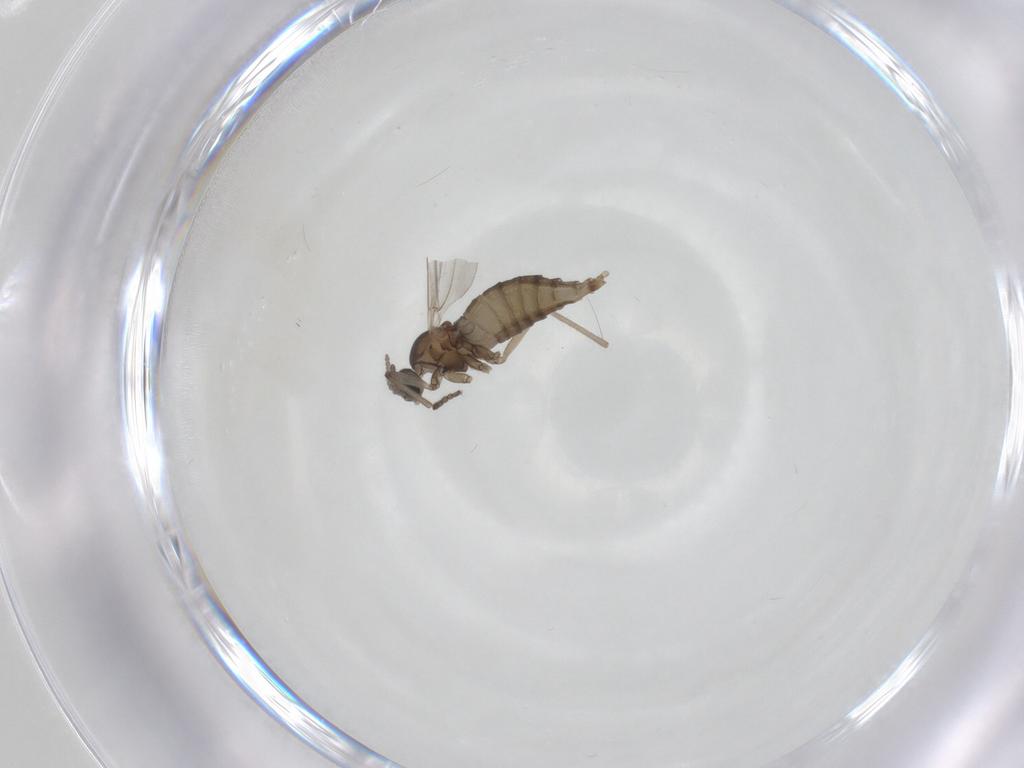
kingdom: Animalia
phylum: Arthropoda
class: Insecta
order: Diptera
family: Cecidomyiidae
